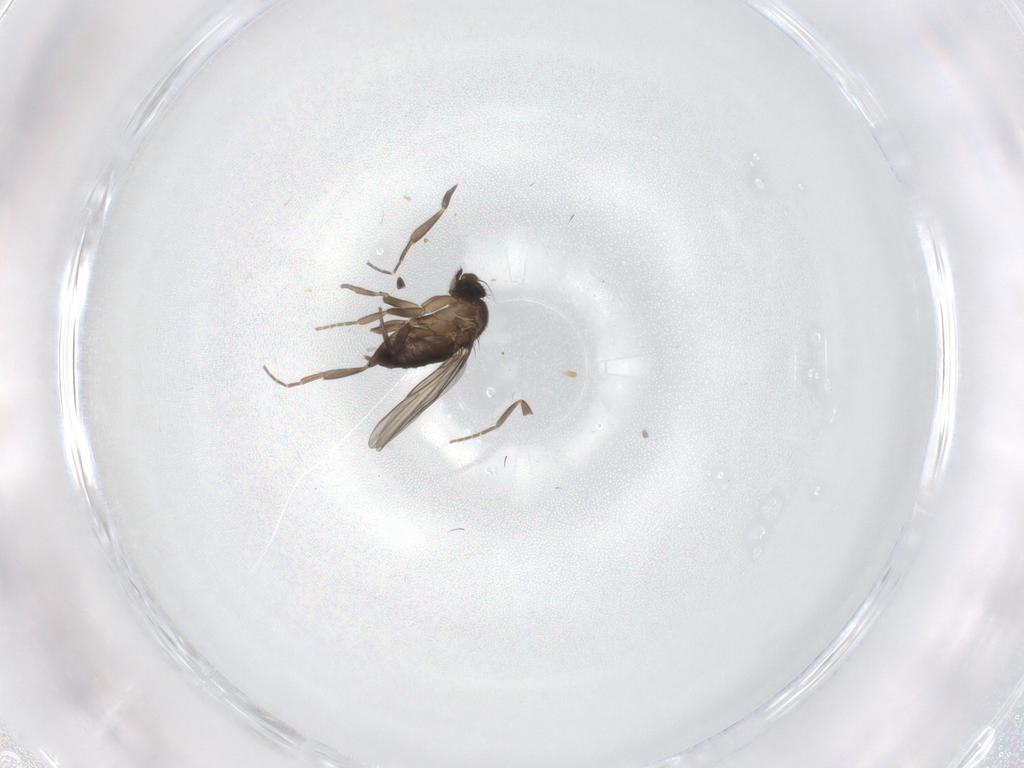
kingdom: Animalia
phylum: Arthropoda
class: Insecta
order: Diptera
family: Phoridae
